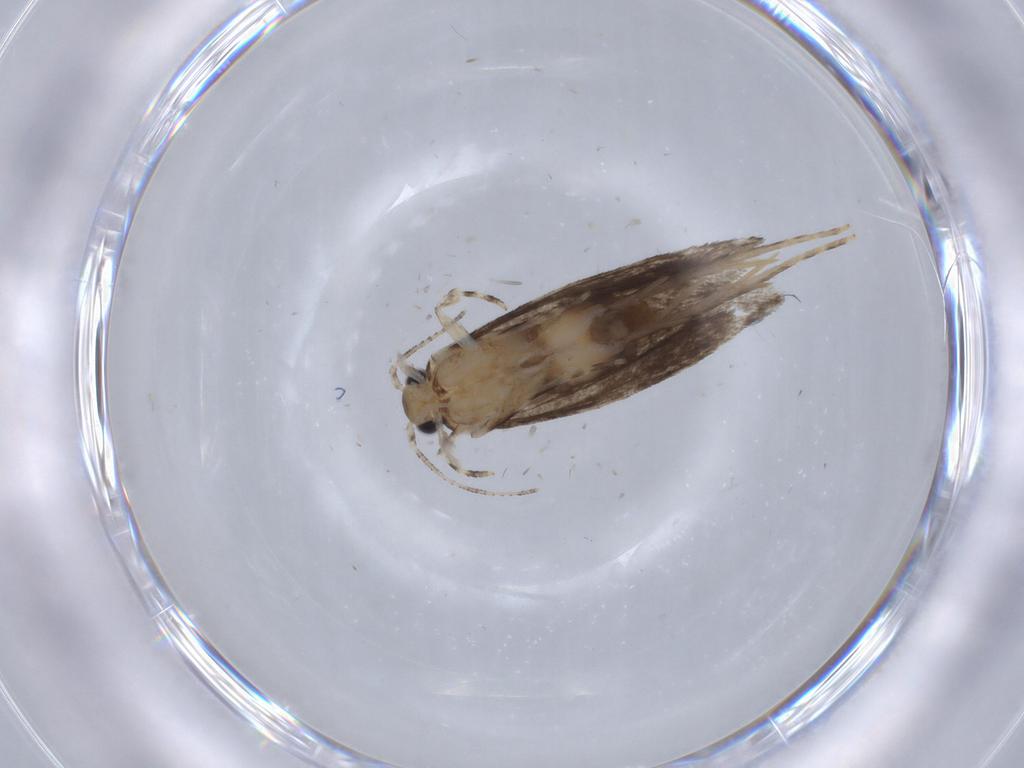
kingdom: Animalia
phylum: Arthropoda
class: Insecta
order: Lepidoptera
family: Tineidae
